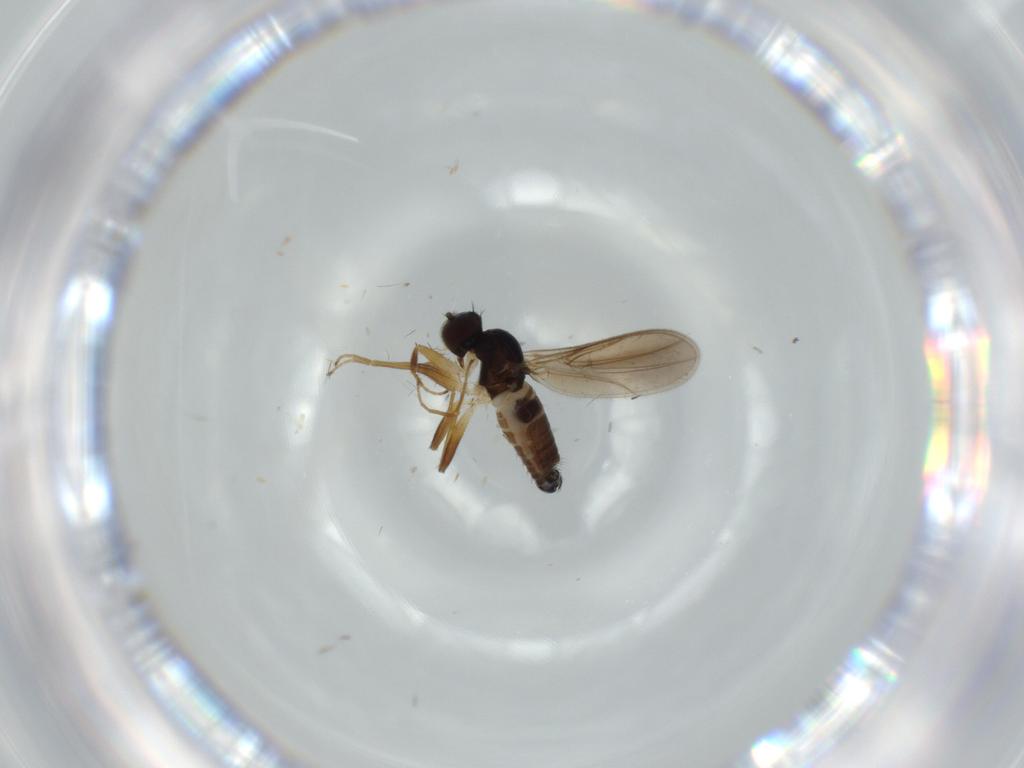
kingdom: Animalia
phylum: Arthropoda
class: Insecta
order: Diptera
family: Hybotidae
